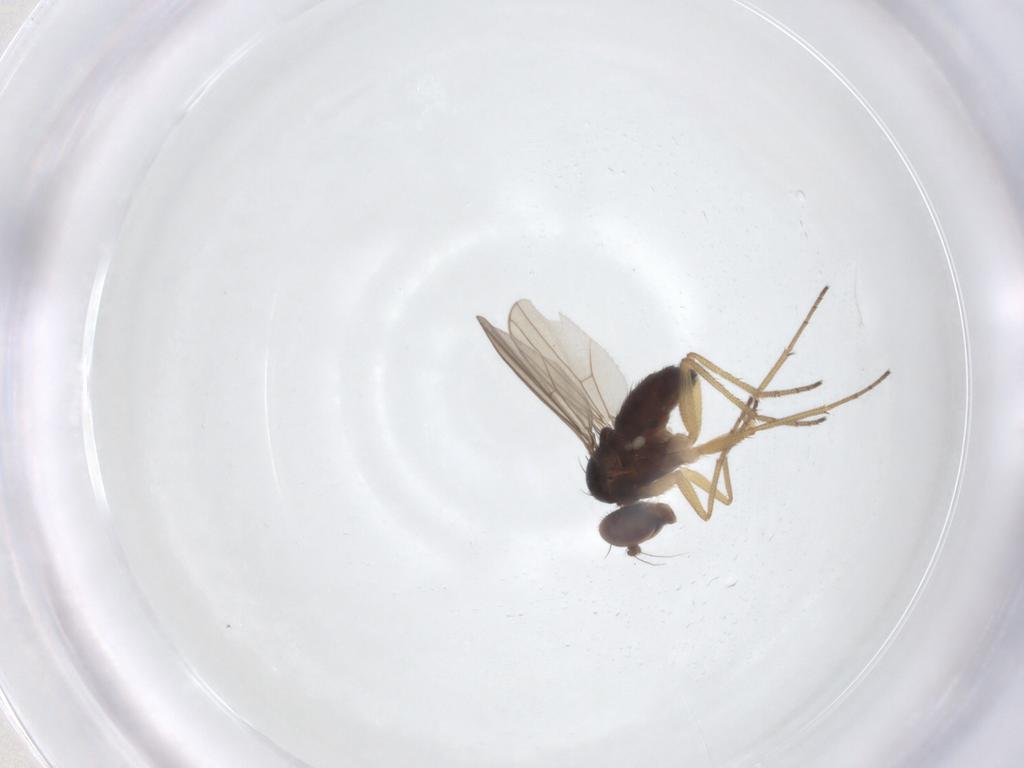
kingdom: Animalia
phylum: Arthropoda
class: Insecta
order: Diptera
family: Dolichopodidae
